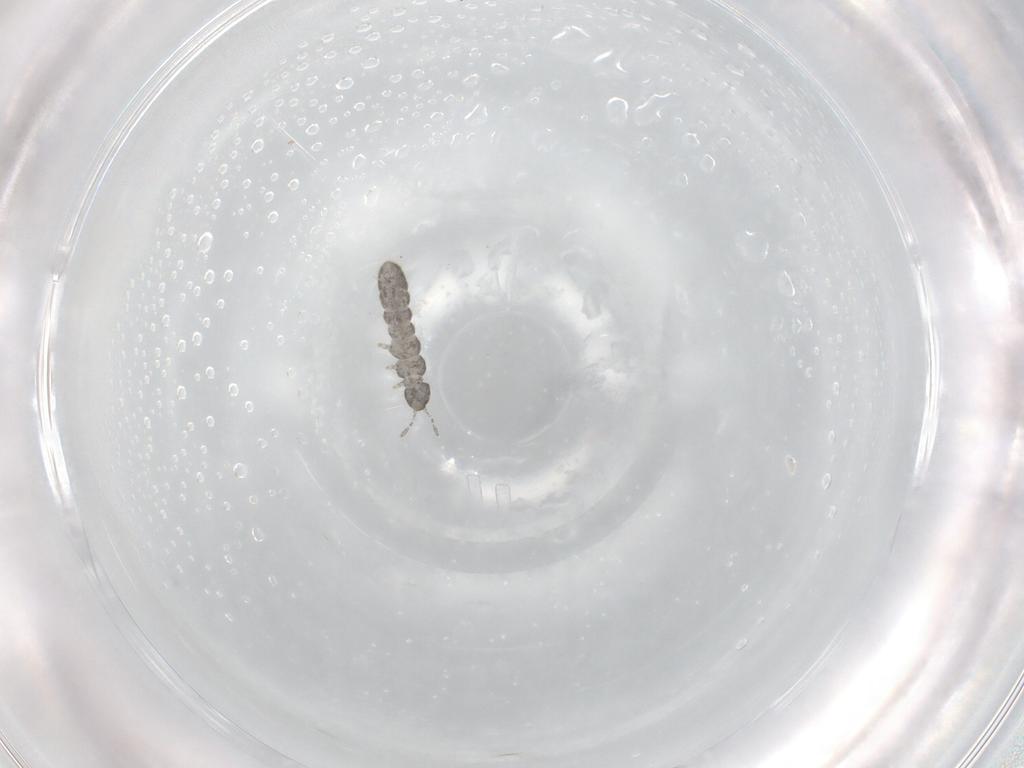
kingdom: Animalia
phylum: Arthropoda
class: Collembola
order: Entomobryomorpha
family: Isotomidae
